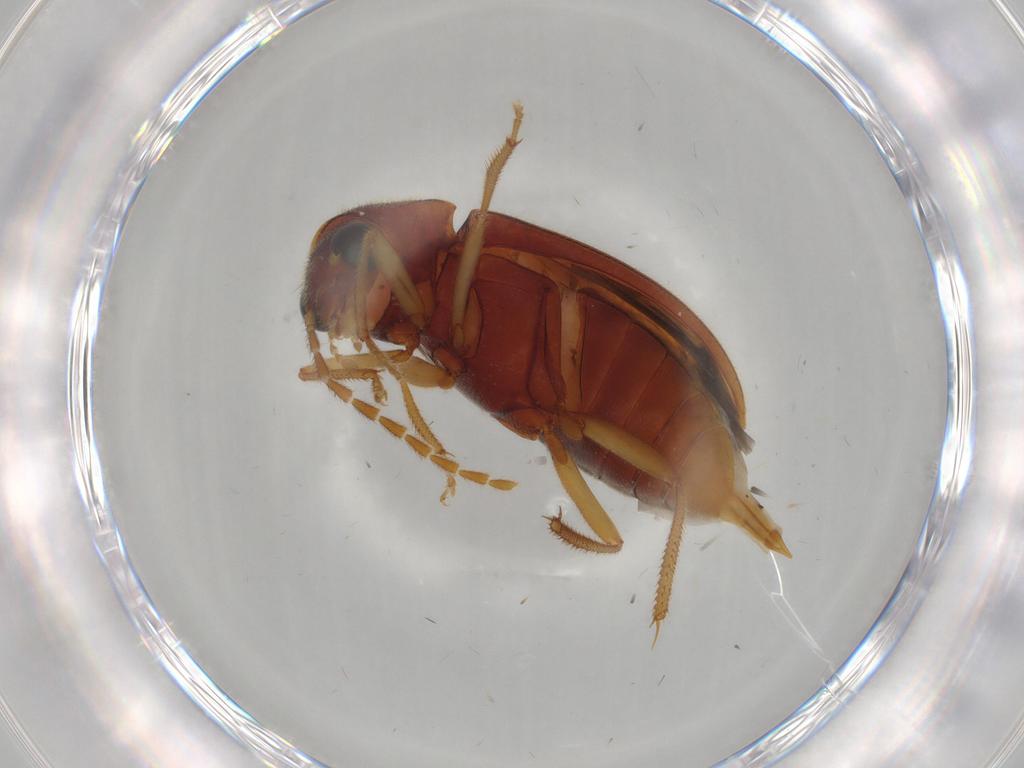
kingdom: Animalia
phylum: Arthropoda
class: Insecta
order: Coleoptera
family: Ptilodactylidae
